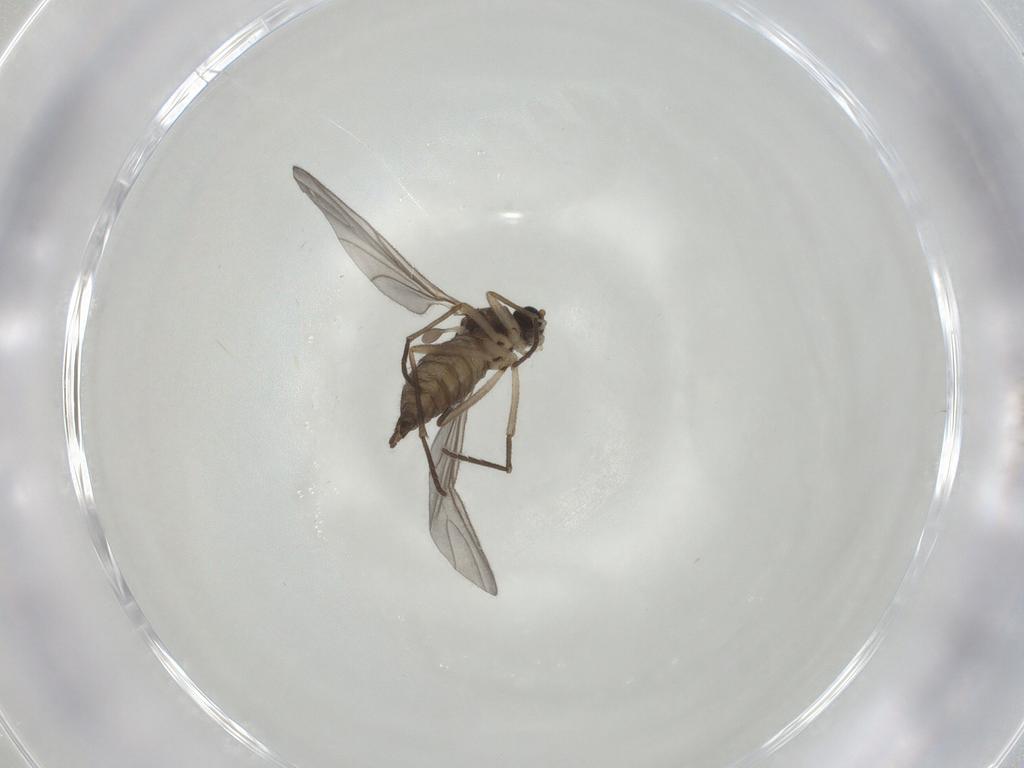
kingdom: Animalia
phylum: Arthropoda
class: Insecta
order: Diptera
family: Sciaridae
